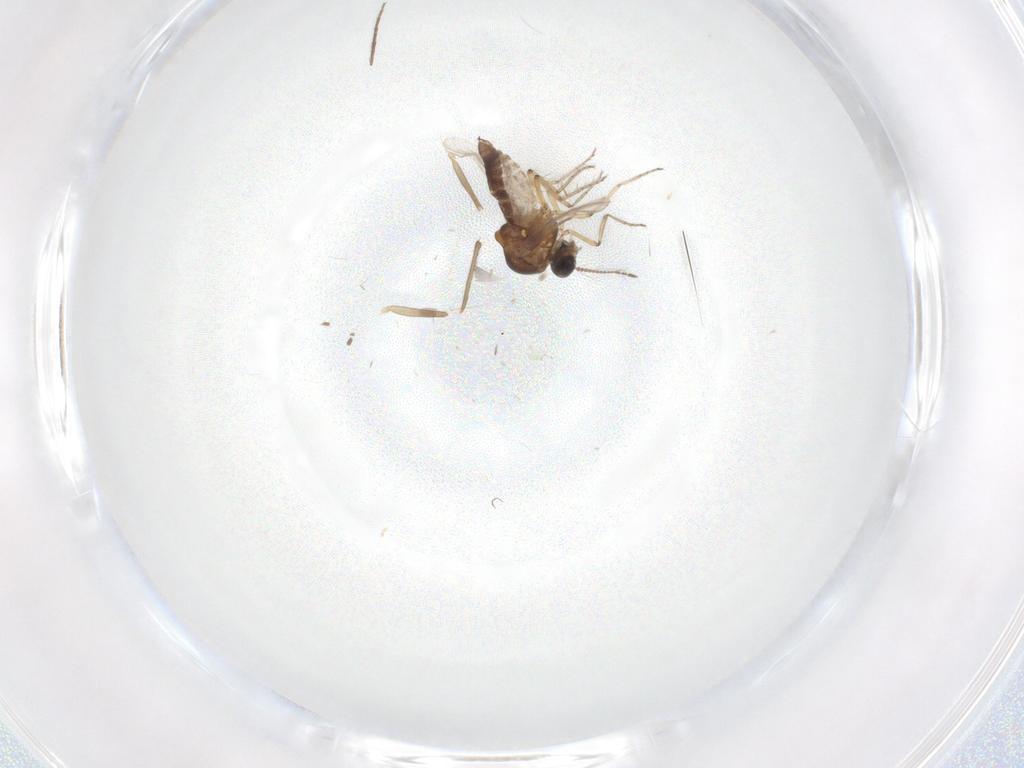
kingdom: Animalia
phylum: Arthropoda
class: Insecta
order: Diptera
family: Chironomidae
